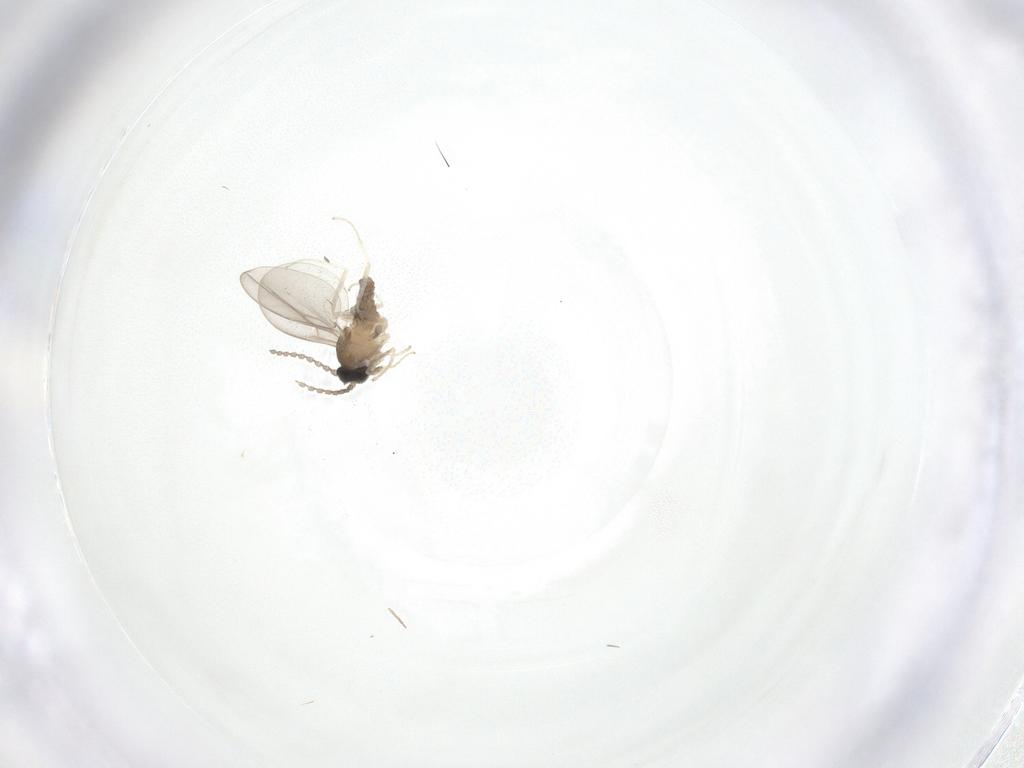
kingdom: Animalia
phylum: Arthropoda
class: Insecta
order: Diptera
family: Cecidomyiidae
